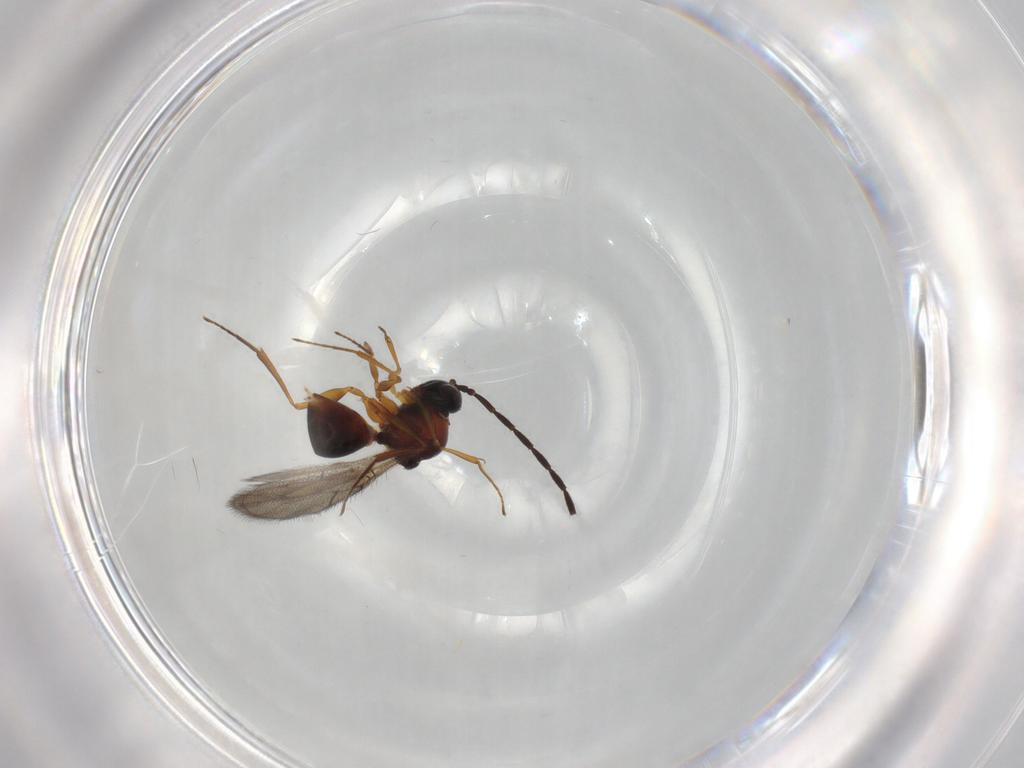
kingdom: Animalia
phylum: Arthropoda
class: Insecta
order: Hymenoptera
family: Figitidae
